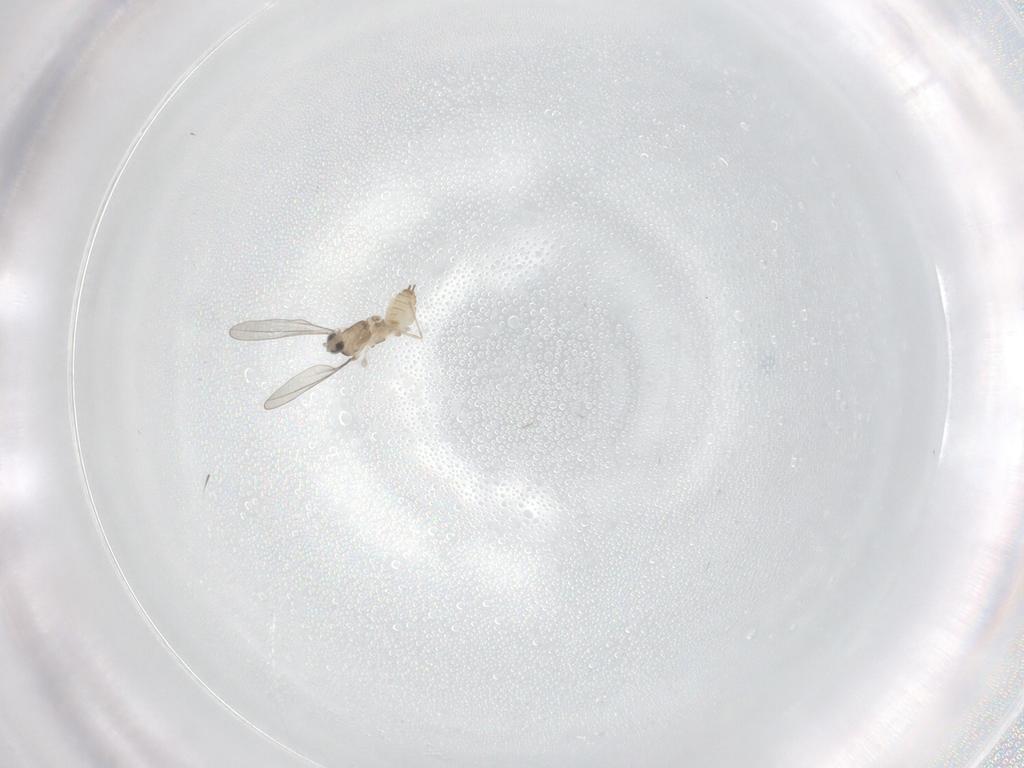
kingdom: Animalia
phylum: Arthropoda
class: Insecta
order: Diptera
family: Cecidomyiidae
